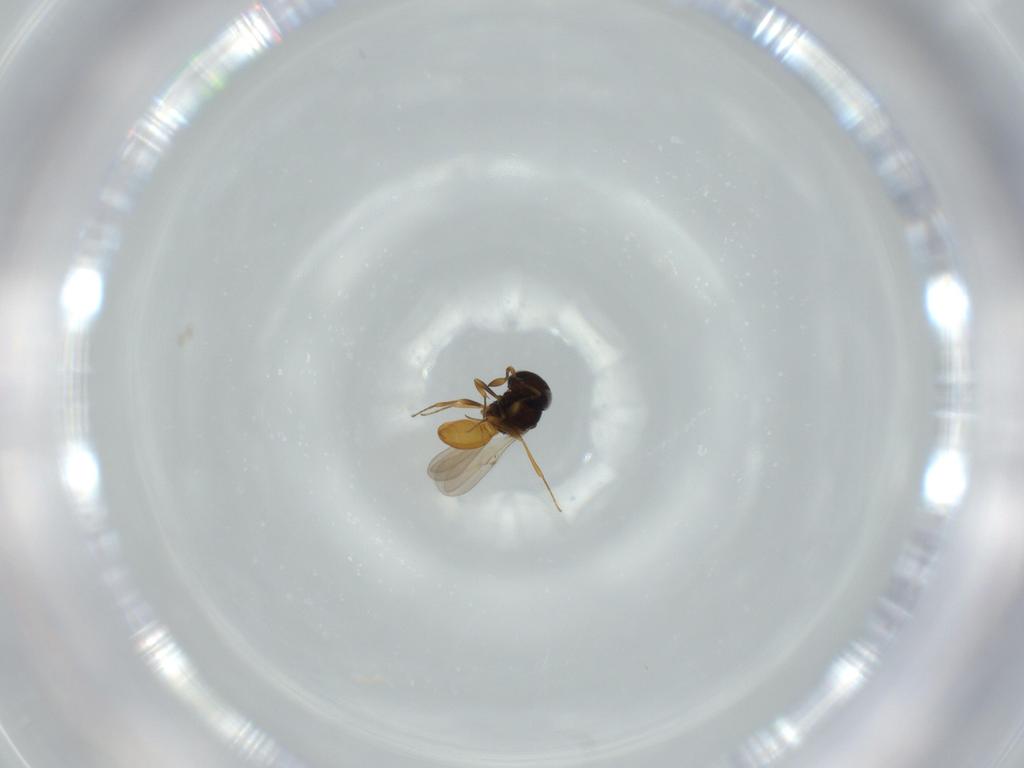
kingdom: Animalia
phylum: Arthropoda
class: Insecta
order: Hymenoptera
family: Scelionidae
